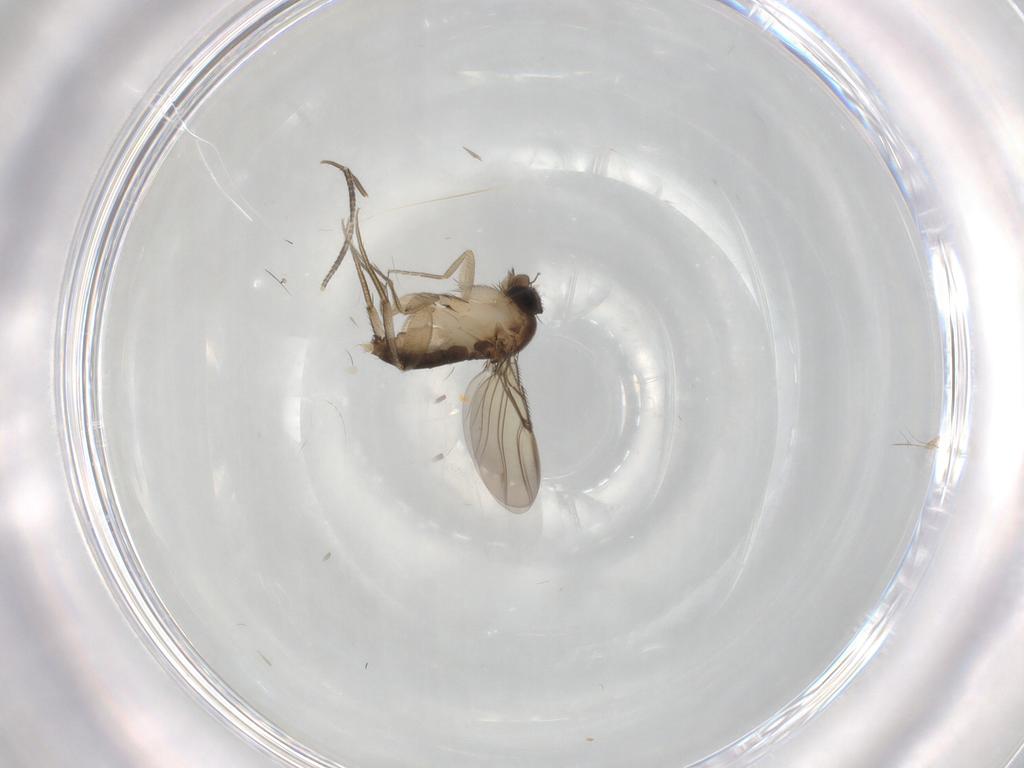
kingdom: Animalia
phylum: Arthropoda
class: Insecta
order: Diptera
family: Phoridae
